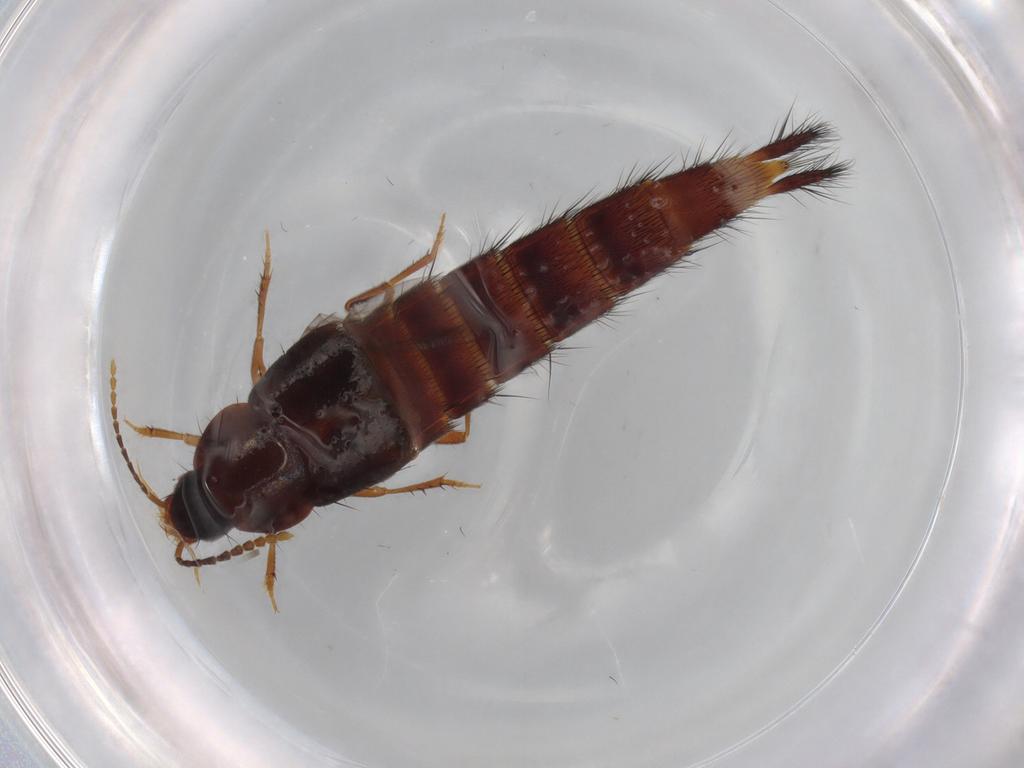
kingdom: Animalia
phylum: Arthropoda
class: Insecta
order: Coleoptera
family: Staphylinidae
